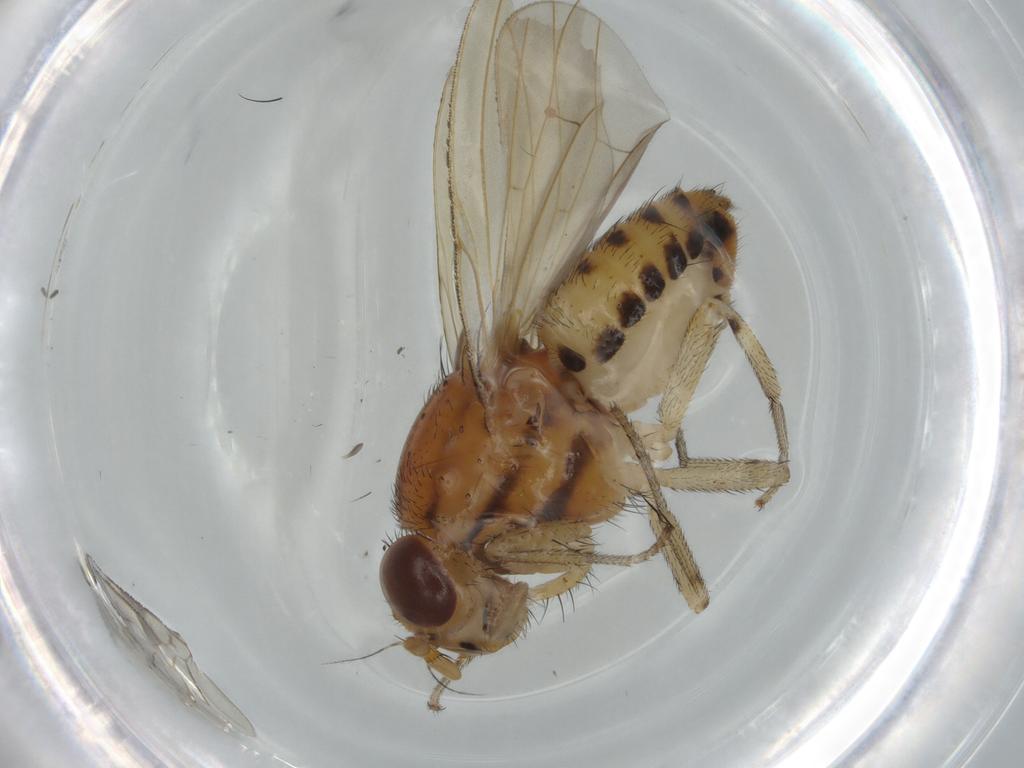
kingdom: Animalia
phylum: Arthropoda
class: Insecta
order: Diptera
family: Keroplatidae
